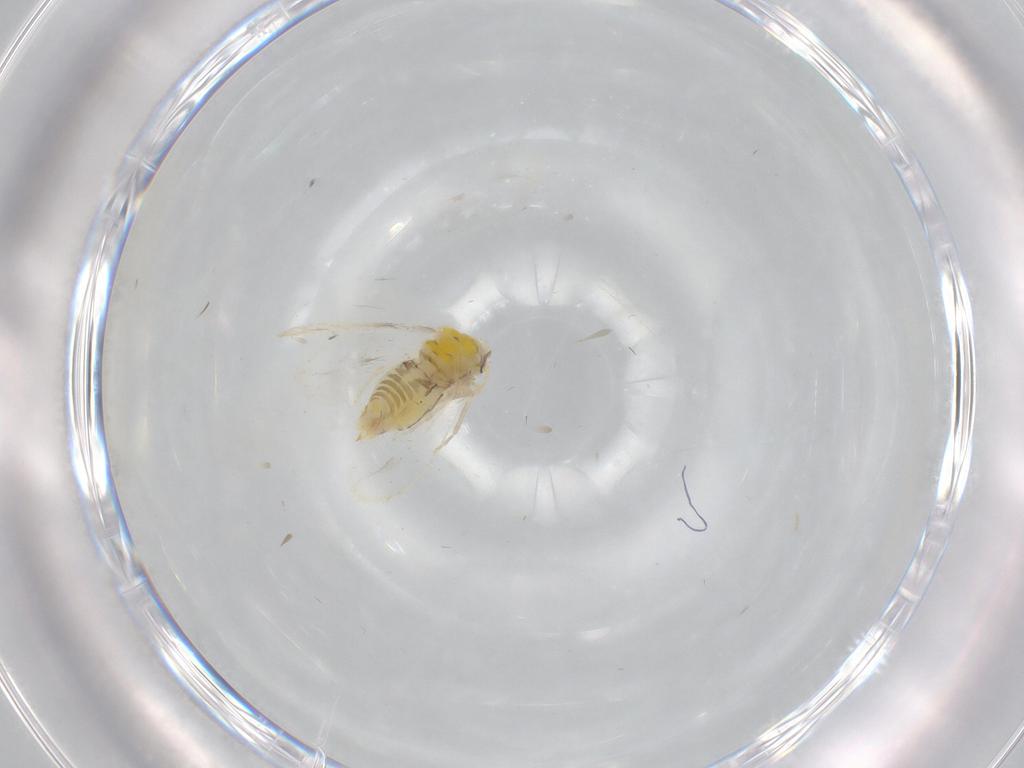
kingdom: Animalia
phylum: Arthropoda
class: Insecta
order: Hemiptera
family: Aleyrodidae
